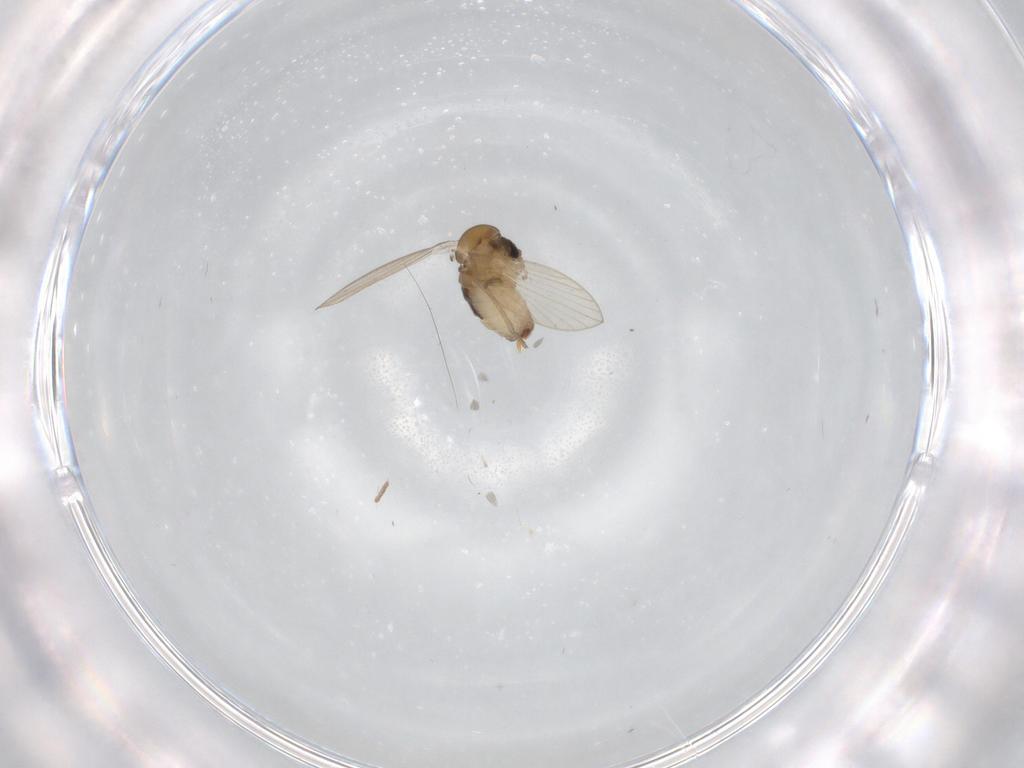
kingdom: Animalia
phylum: Arthropoda
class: Insecta
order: Diptera
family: Psychodidae
